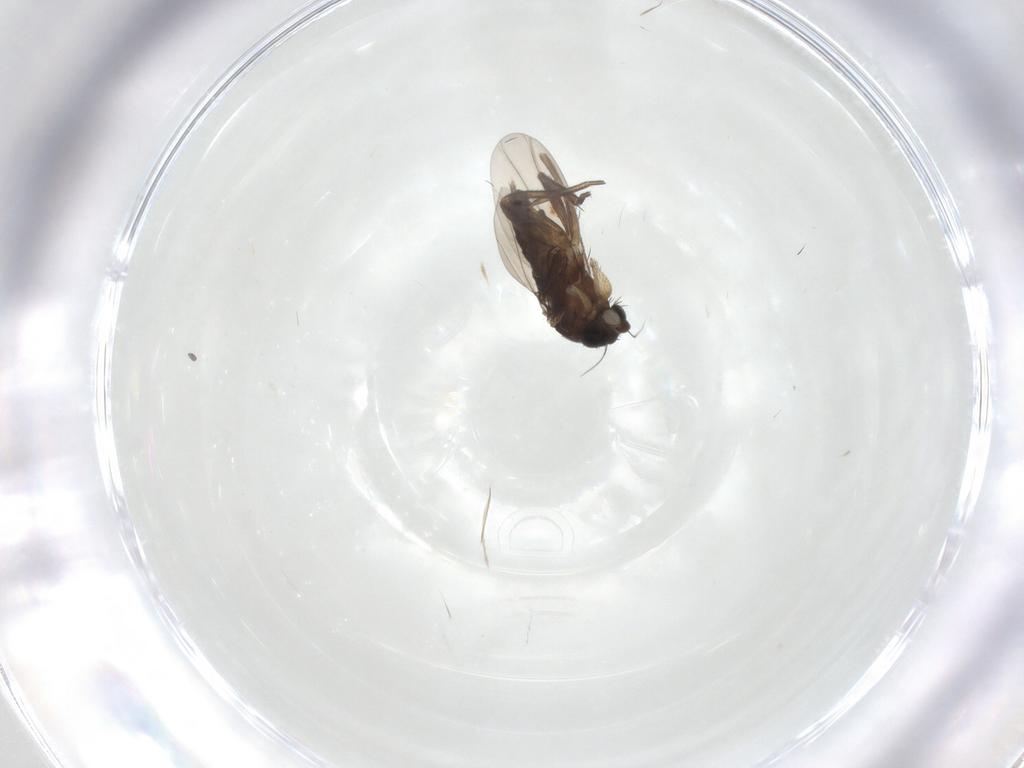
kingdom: Animalia
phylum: Arthropoda
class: Insecta
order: Diptera
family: Phoridae
